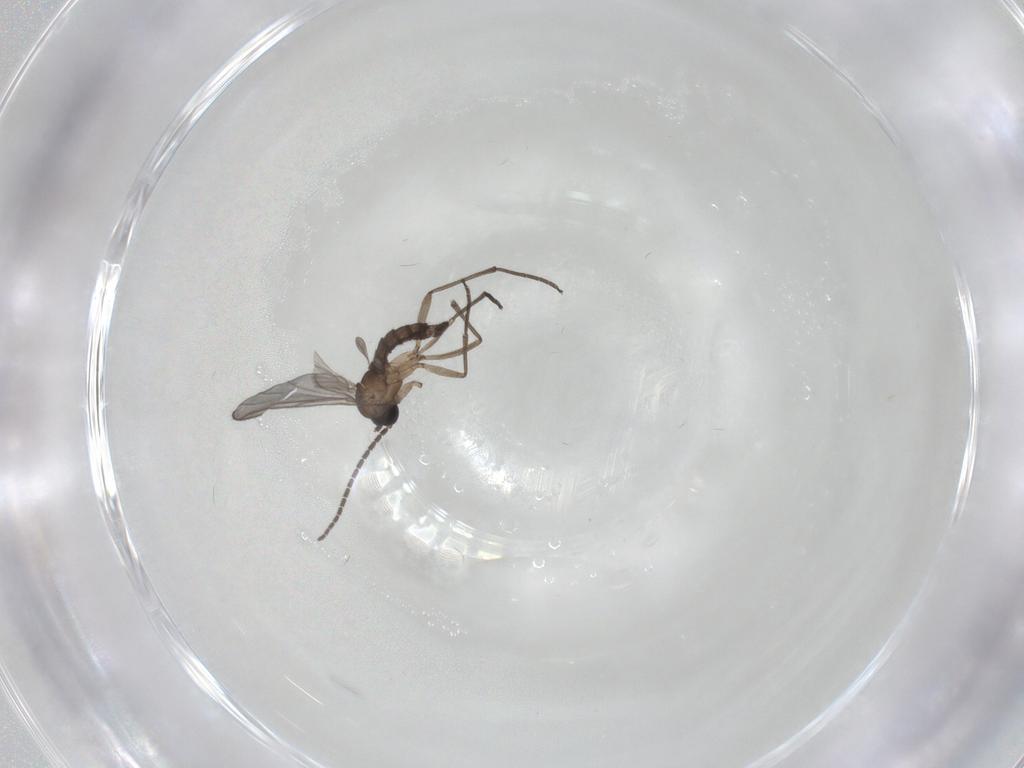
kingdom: Animalia
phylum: Arthropoda
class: Insecta
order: Diptera
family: Sciaridae
